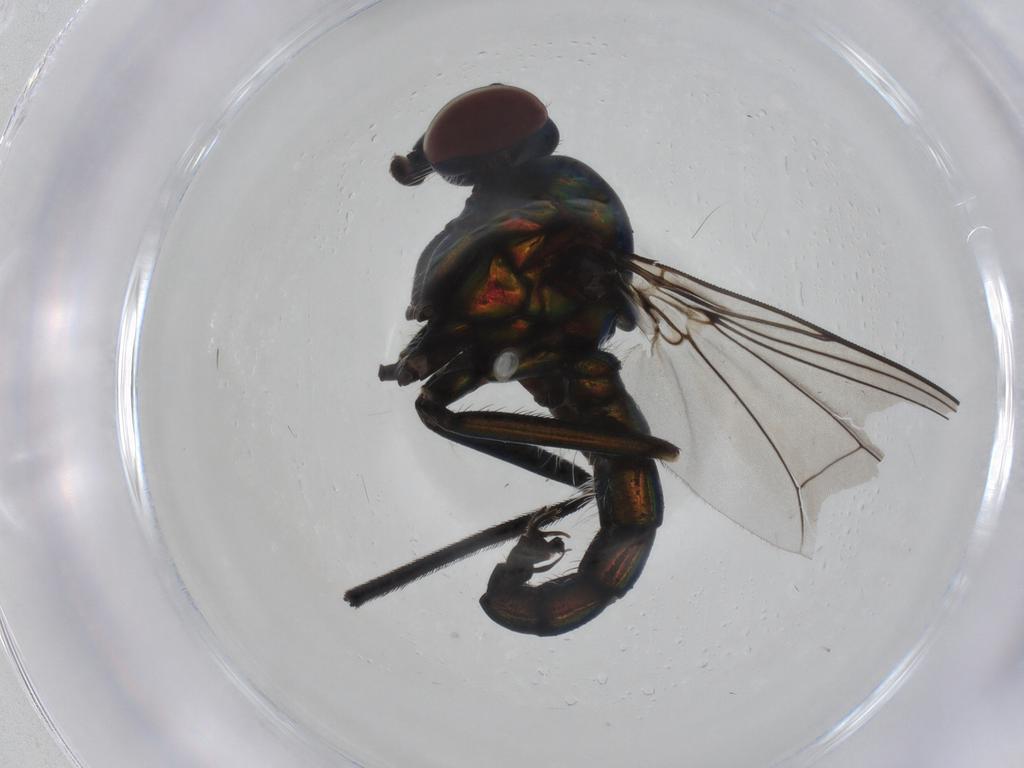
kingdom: Animalia
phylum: Arthropoda
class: Insecta
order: Diptera
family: Dolichopodidae
